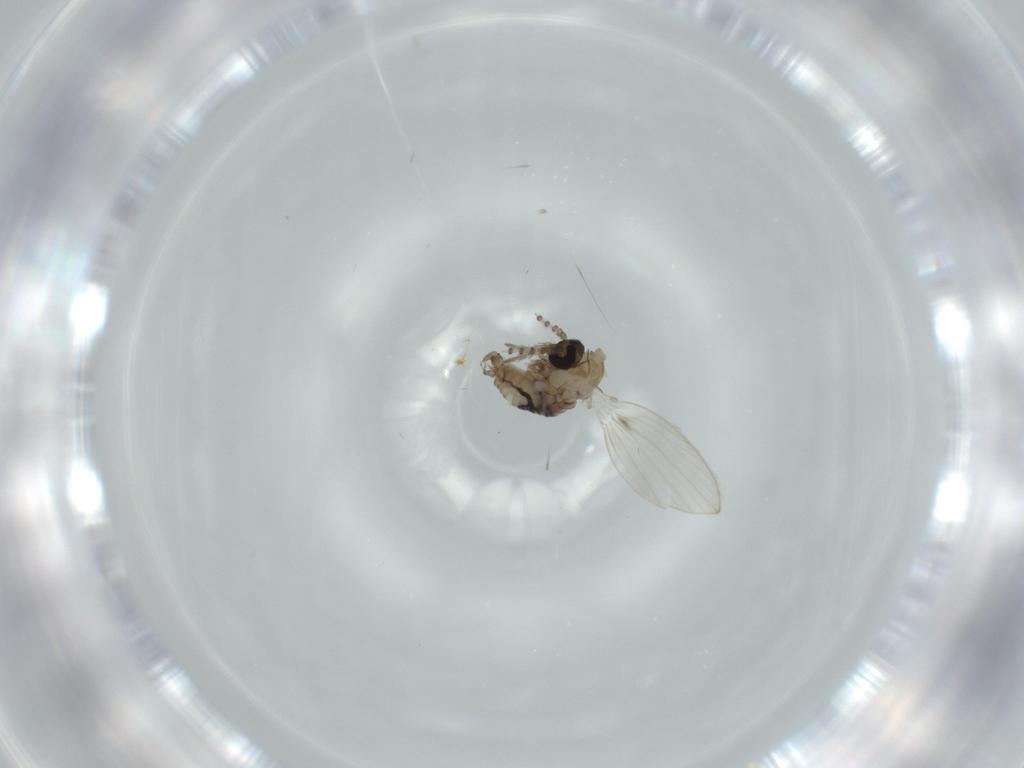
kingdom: Animalia
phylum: Arthropoda
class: Insecta
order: Diptera
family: Psychodidae
